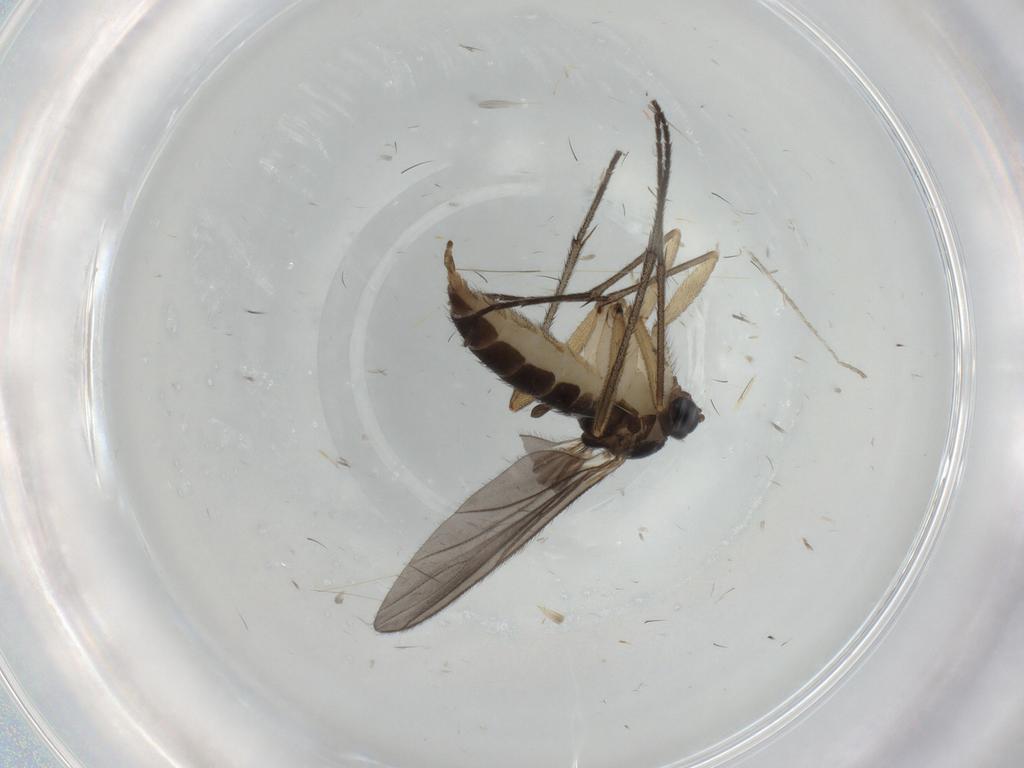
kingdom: Animalia
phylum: Arthropoda
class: Insecta
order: Diptera
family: Sciaridae
